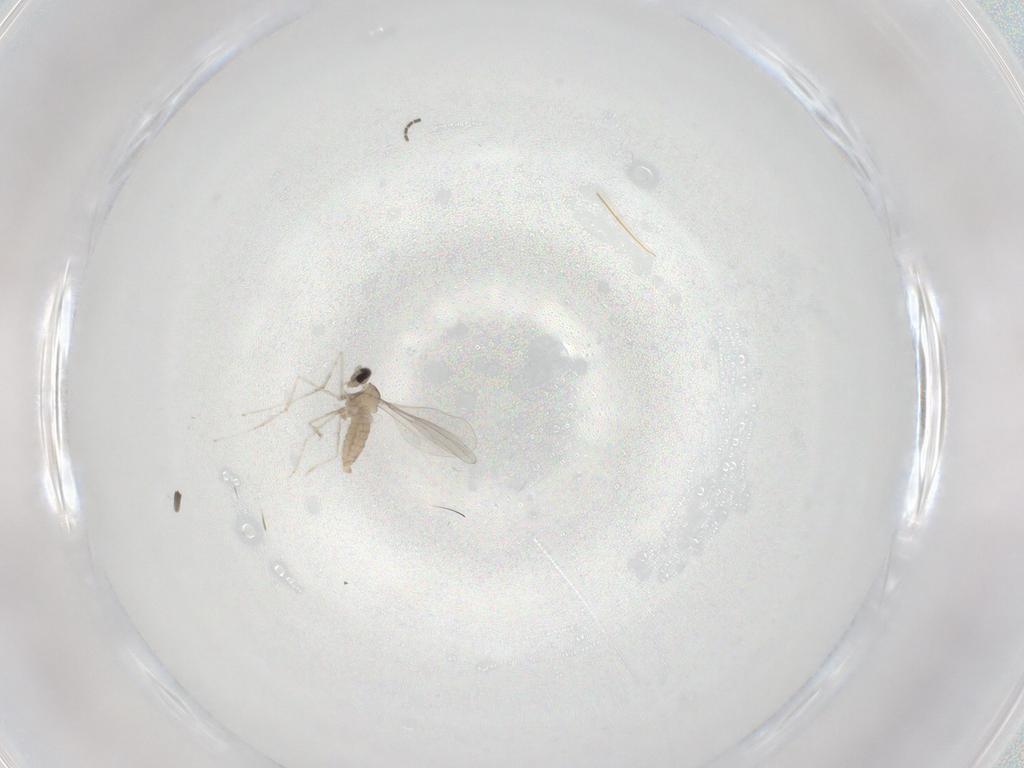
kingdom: Animalia
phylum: Arthropoda
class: Insecta
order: Diptera
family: Cecidomyiidae
